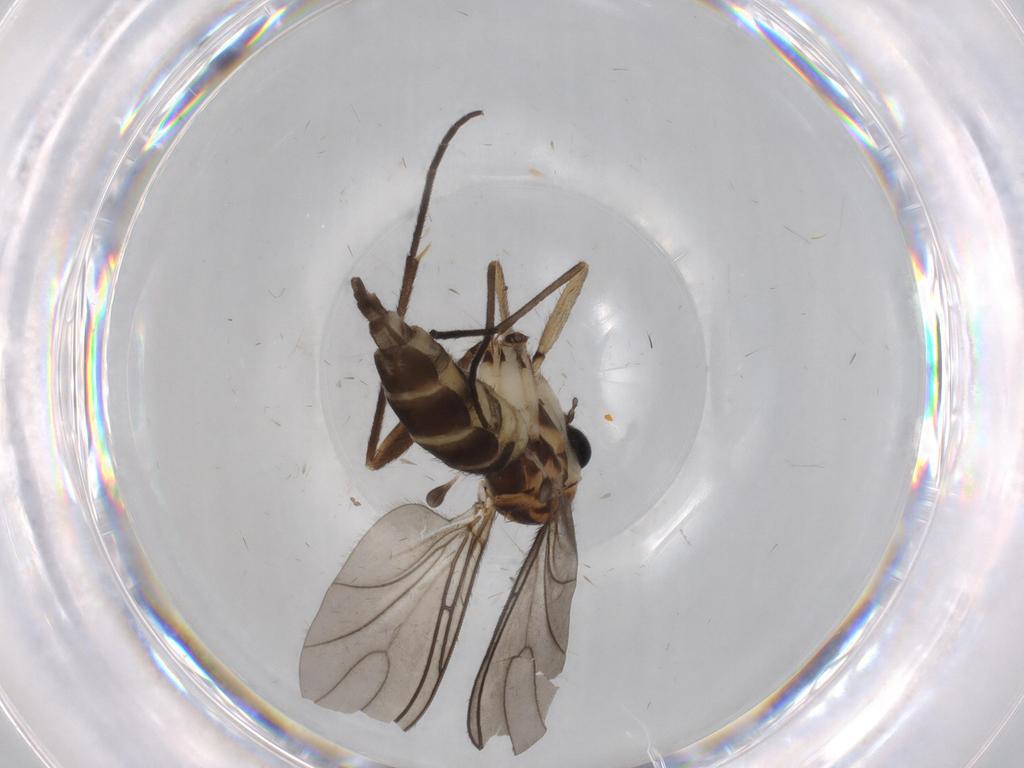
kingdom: Animalia
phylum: Arthropoda
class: Insecta
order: Diptera
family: Sciaridae
